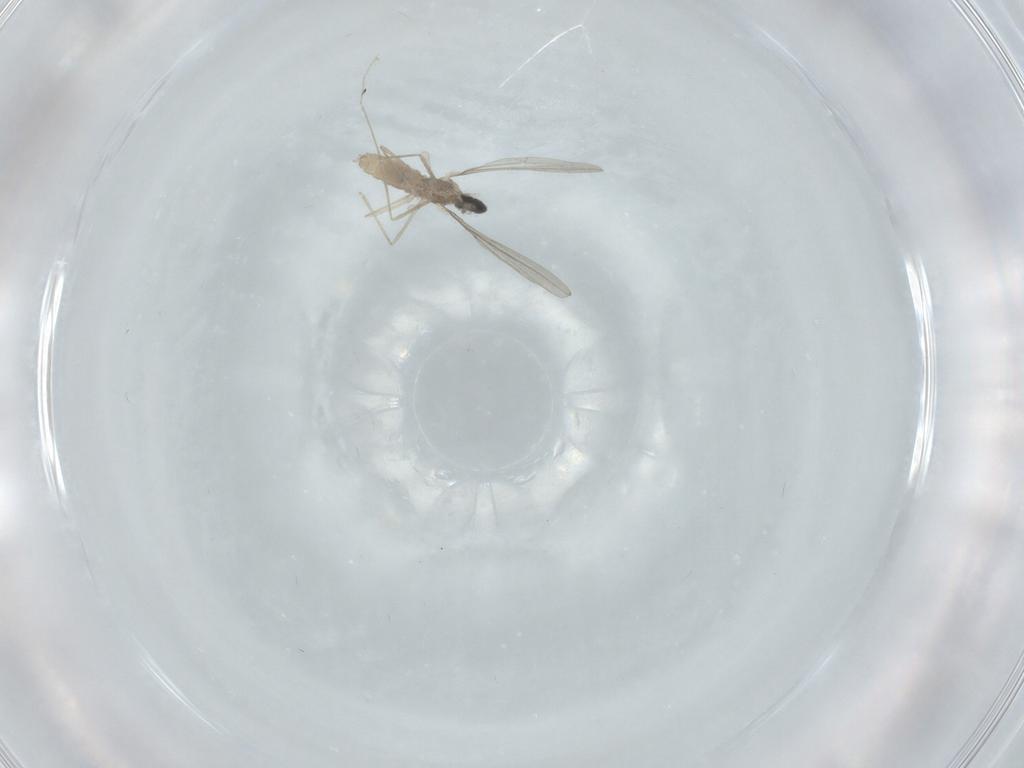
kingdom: Animalia
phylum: Arthropoda
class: Insecta
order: Diptera
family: Cecidomyiidae
